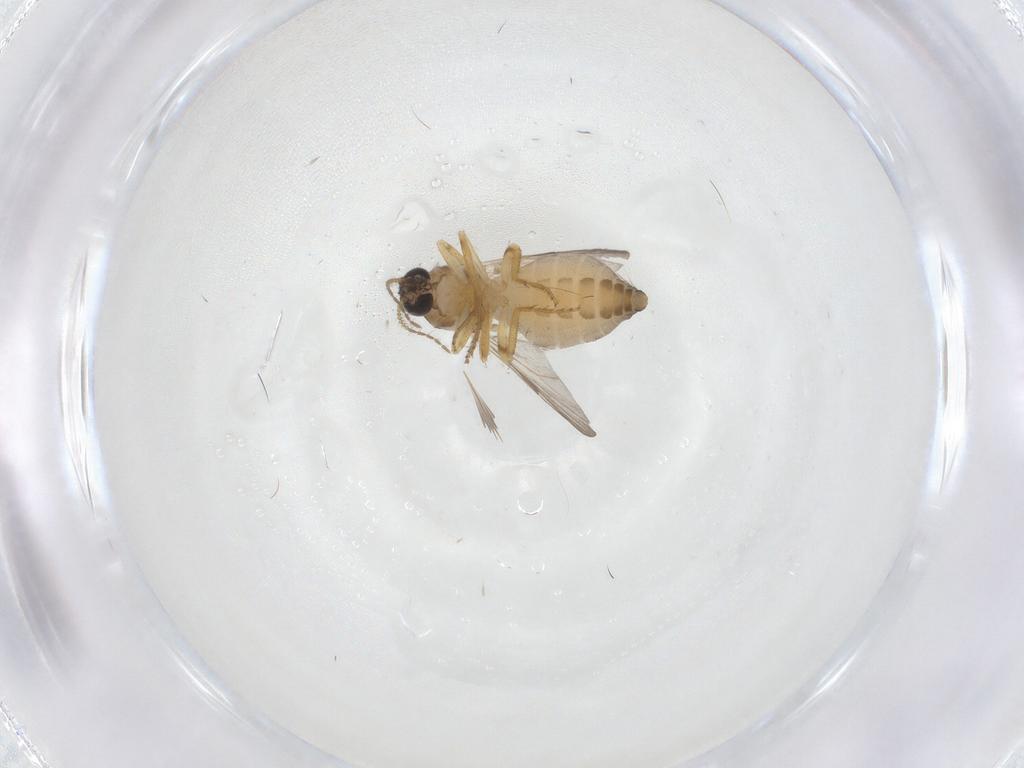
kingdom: Animalia
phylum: Arthropoda
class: Insecta
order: Diptera
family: Ceratopogonidae
